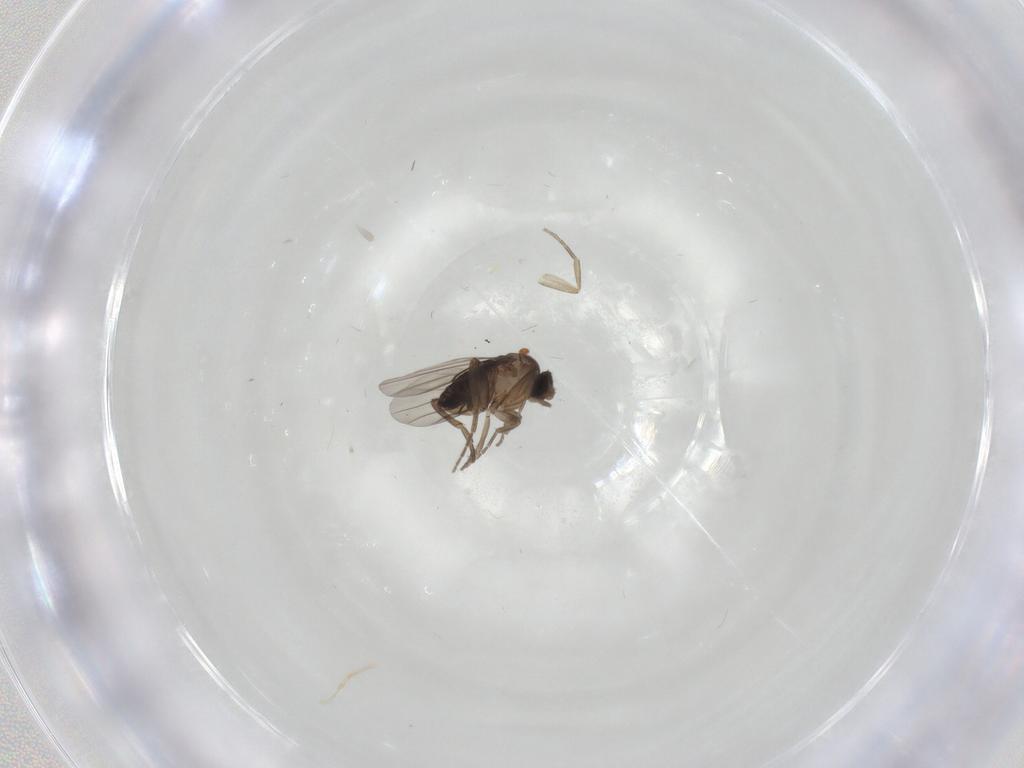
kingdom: Animalia
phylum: Arthropoda
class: Insecta
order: Diptera
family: Phoridae
